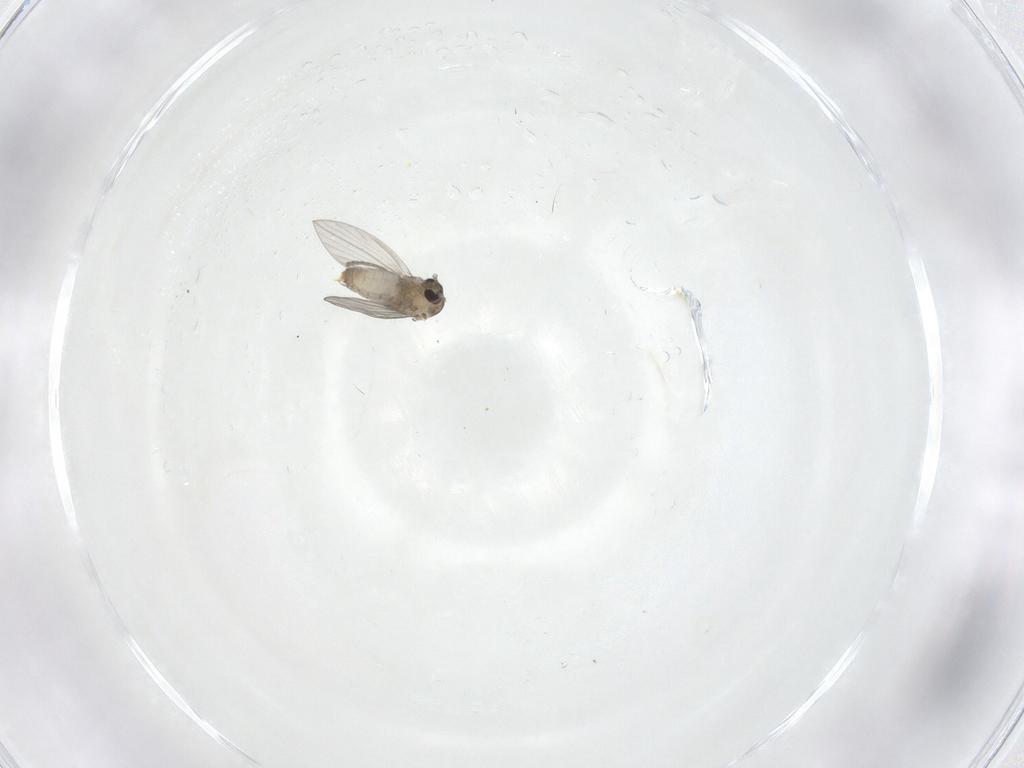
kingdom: Animalia
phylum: Arthropoda
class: Insecta
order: Diptera
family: Psychodidae
